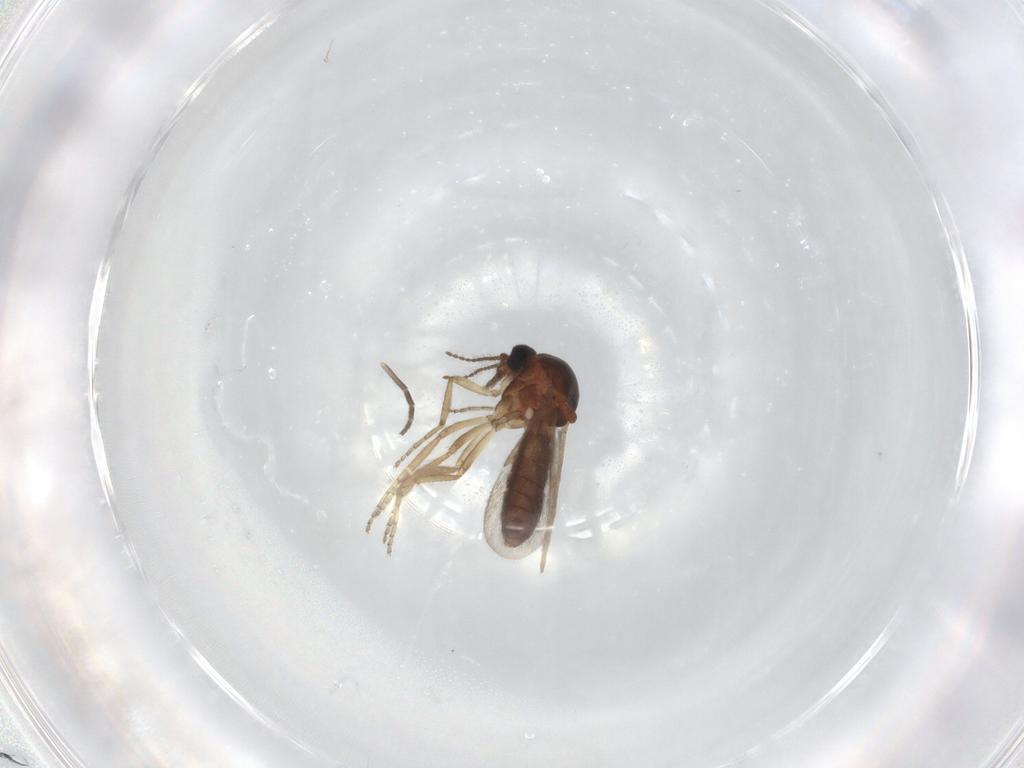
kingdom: Animalia
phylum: Arthropoda
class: Insecta
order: Diptera
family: Ceratopogonidae
